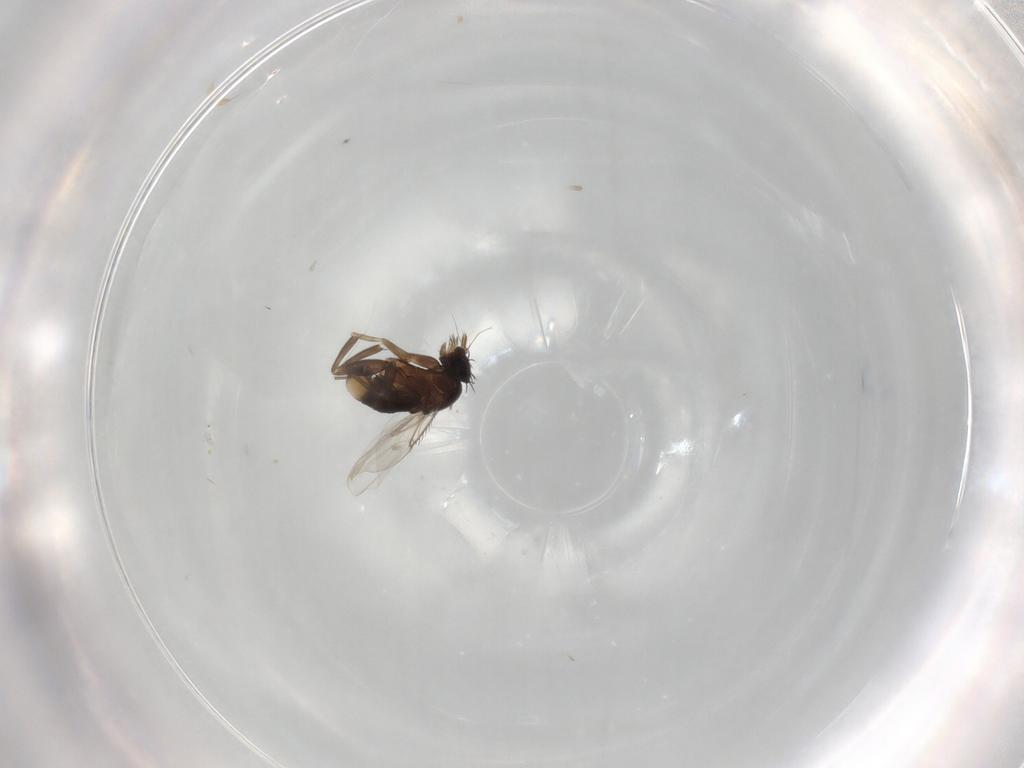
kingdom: Animalia
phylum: Arthropoda
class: Insecta
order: Diptera
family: Phoridae
